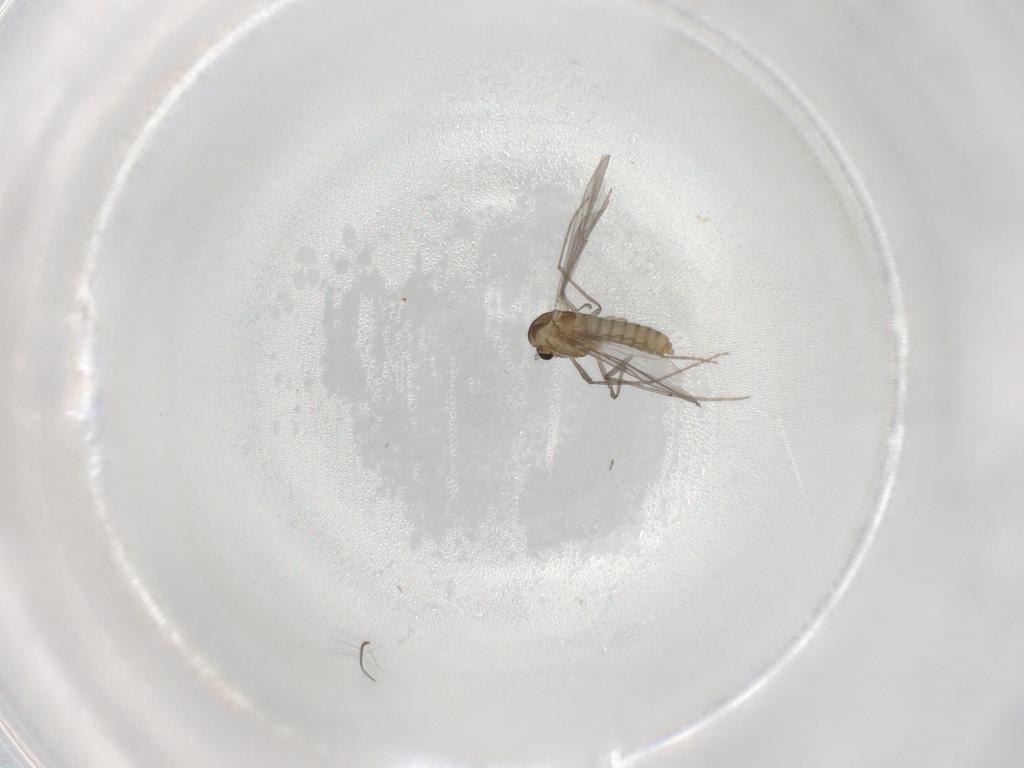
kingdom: Animalia
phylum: Arthropoda
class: Insecta
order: Diptera
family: Chironomidae
